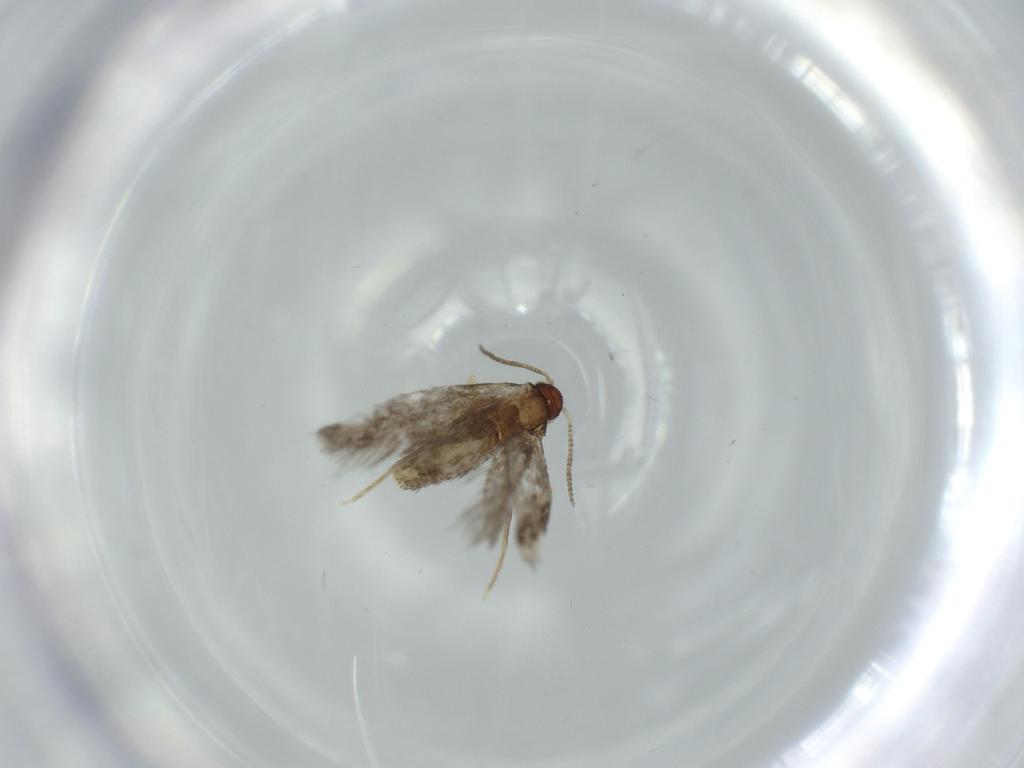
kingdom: Animalia
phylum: Arthropoda
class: Insecta
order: Lepidoptera
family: Tineidae
